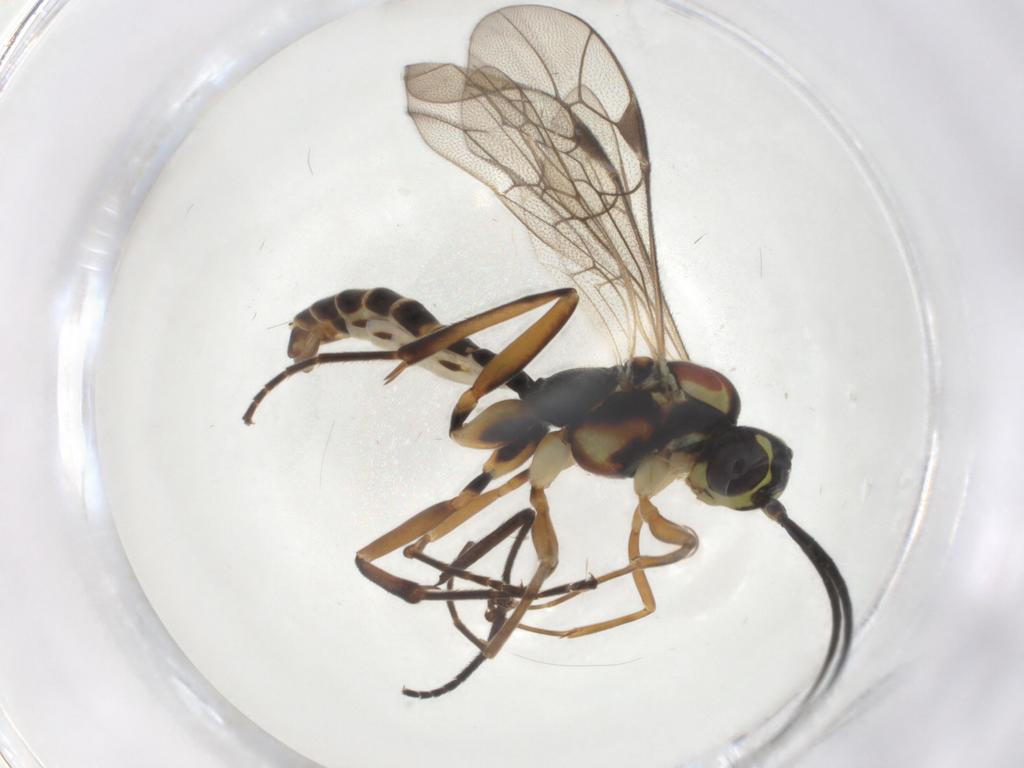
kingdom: Animalia
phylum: Arthropoda
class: Insecta
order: Hymenoptera
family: Ichneumonidae
